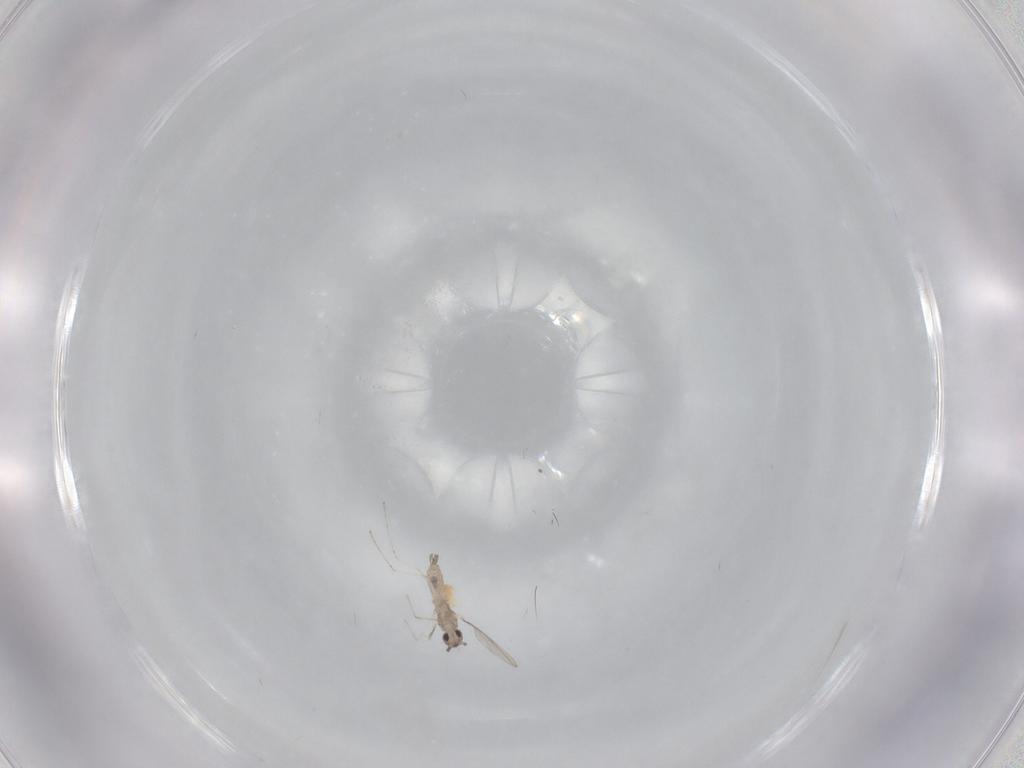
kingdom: Animalia
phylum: Arthropoda
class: Insecta
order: Diptera
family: Cecidomyiidae
